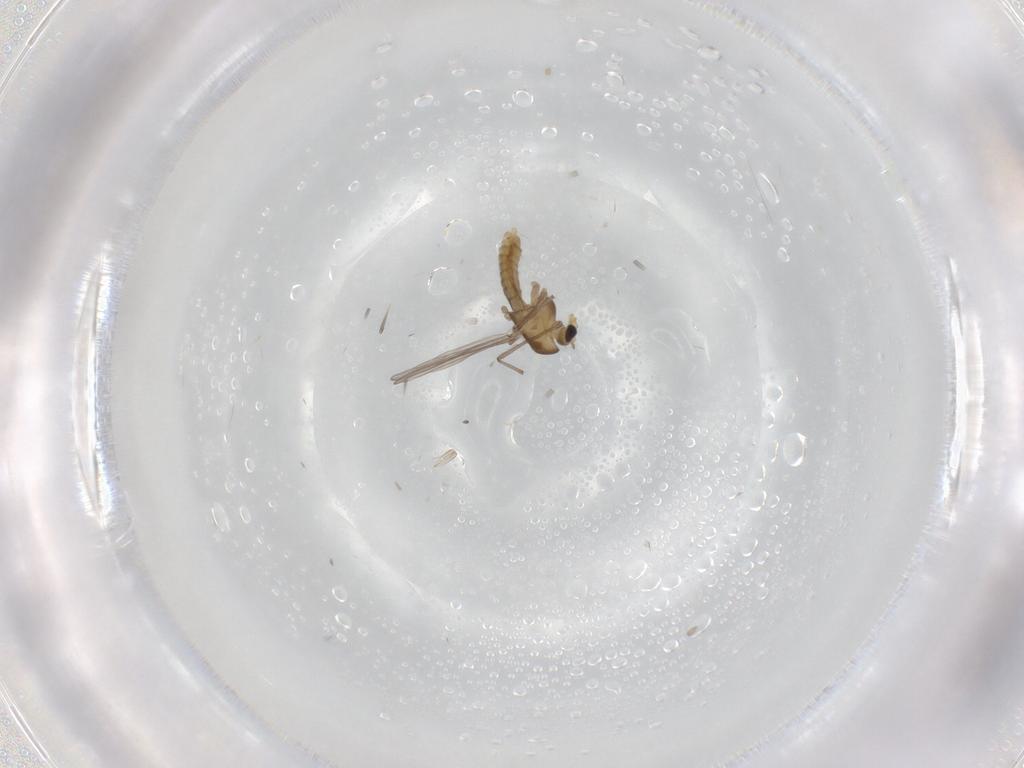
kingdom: Animalia
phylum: Arthropoda
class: Insecta
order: Diptera
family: Chironomidae
